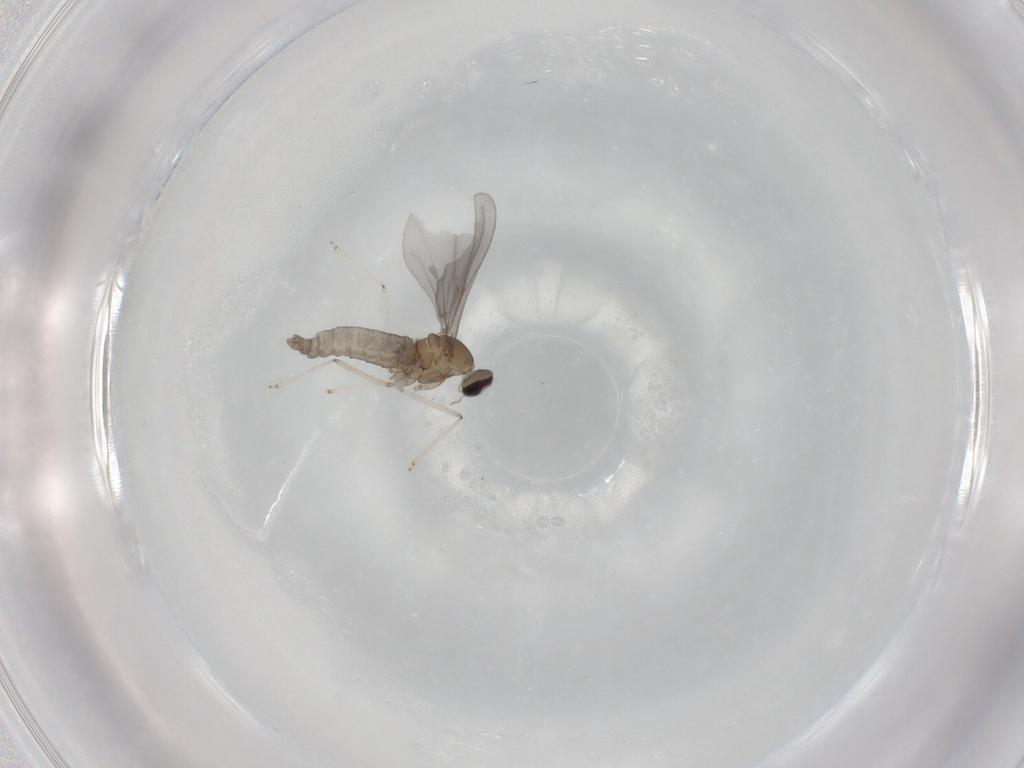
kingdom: Animalia
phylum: Arthropoda
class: Insecta
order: Diptera
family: Cecidomyiidae
